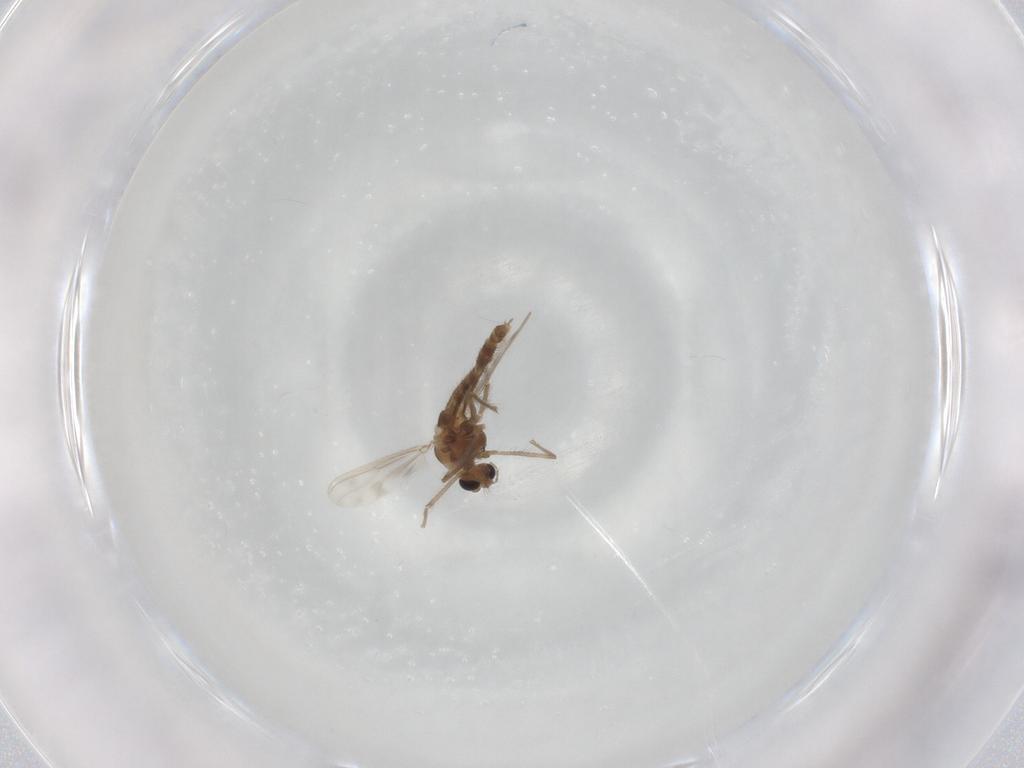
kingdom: Animalia
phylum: Arthropoda
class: Insecta
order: Diptera
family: Chironomidae
